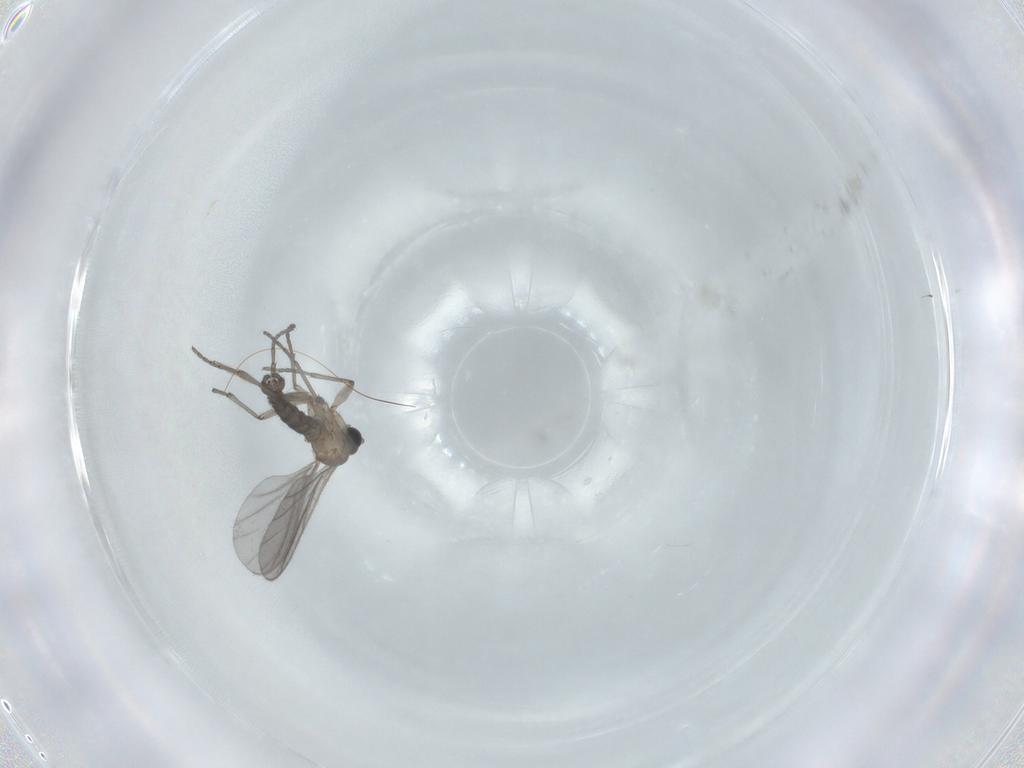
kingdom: Animalia
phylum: Arthropoda
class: Insecta
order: Diptera
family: Sciaridae
